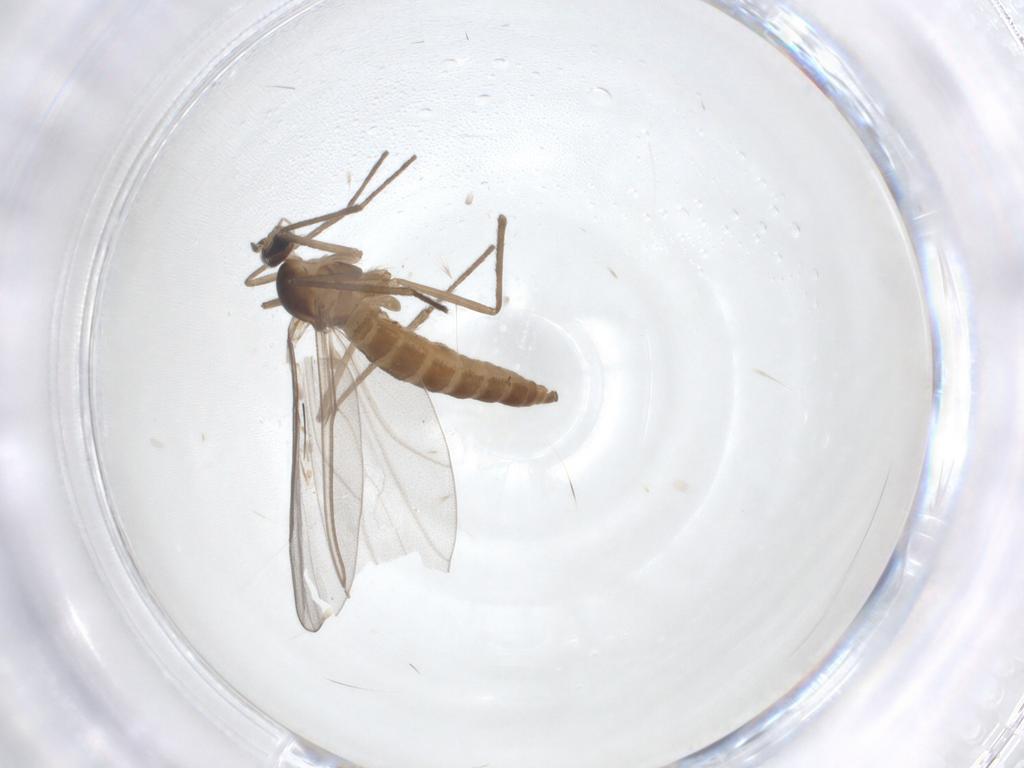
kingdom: Animalia
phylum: Arthropoda
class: Insecta
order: Diptera
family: Cecidomyiidae
